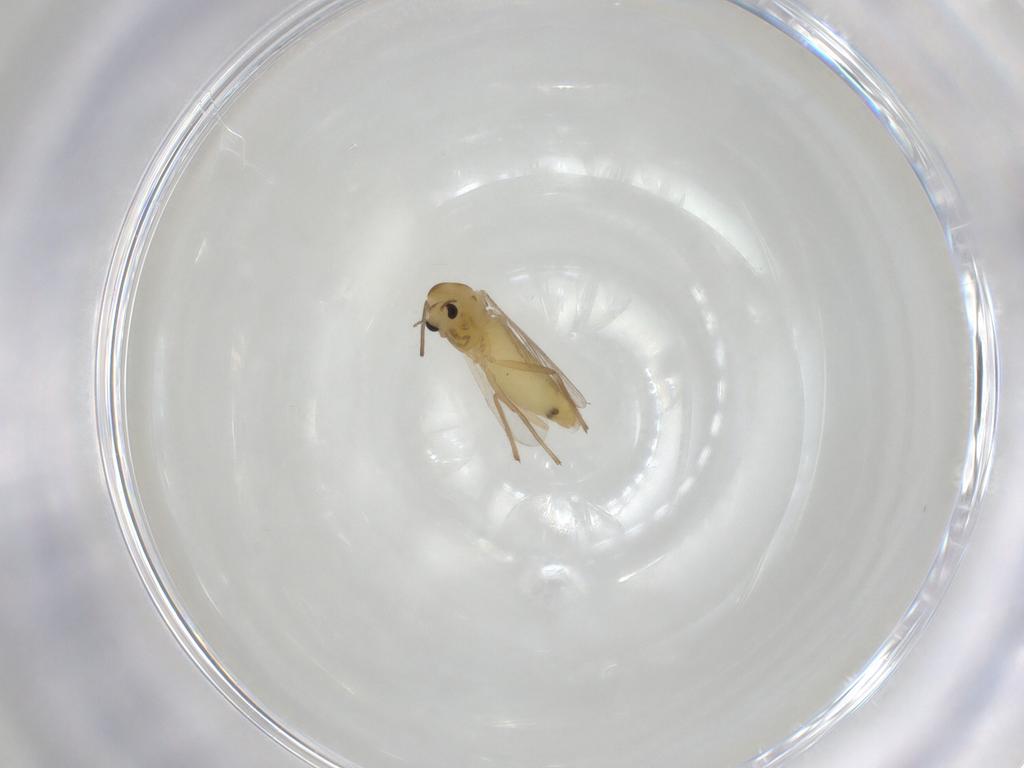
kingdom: Animalia
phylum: Arthropoda
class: Insecta
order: Diptera
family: Chironomidae
